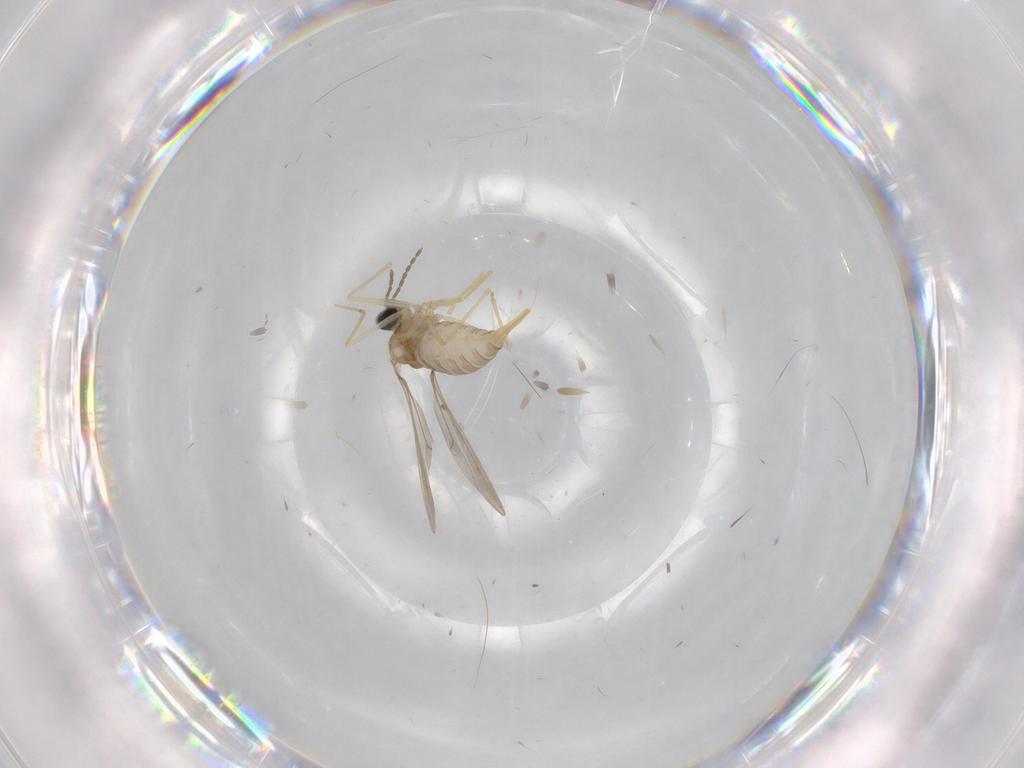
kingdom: Animalia
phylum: Arthropoda
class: Insecta
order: Diptera
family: Cecidomyiidae
